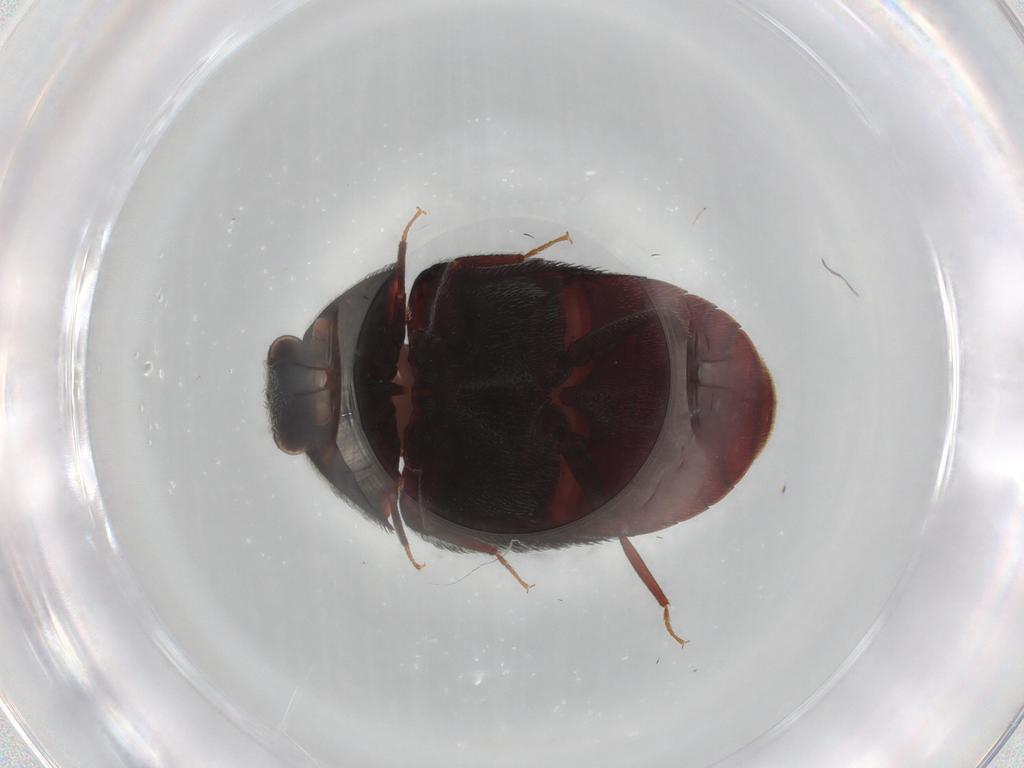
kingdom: Animalia
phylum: Arthropoda
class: Insecta
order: Coleoptera
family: Dermestidae
